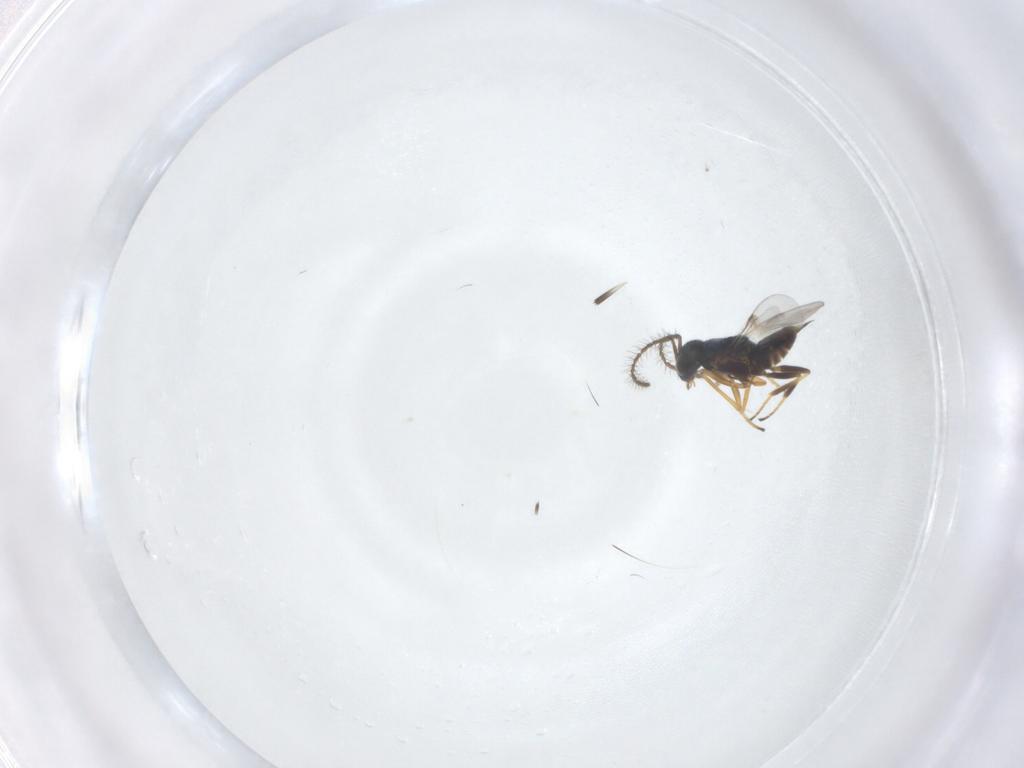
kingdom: Animalia
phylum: Arthropoda
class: Insecta
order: Hymenoptera
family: Encyrtidae
